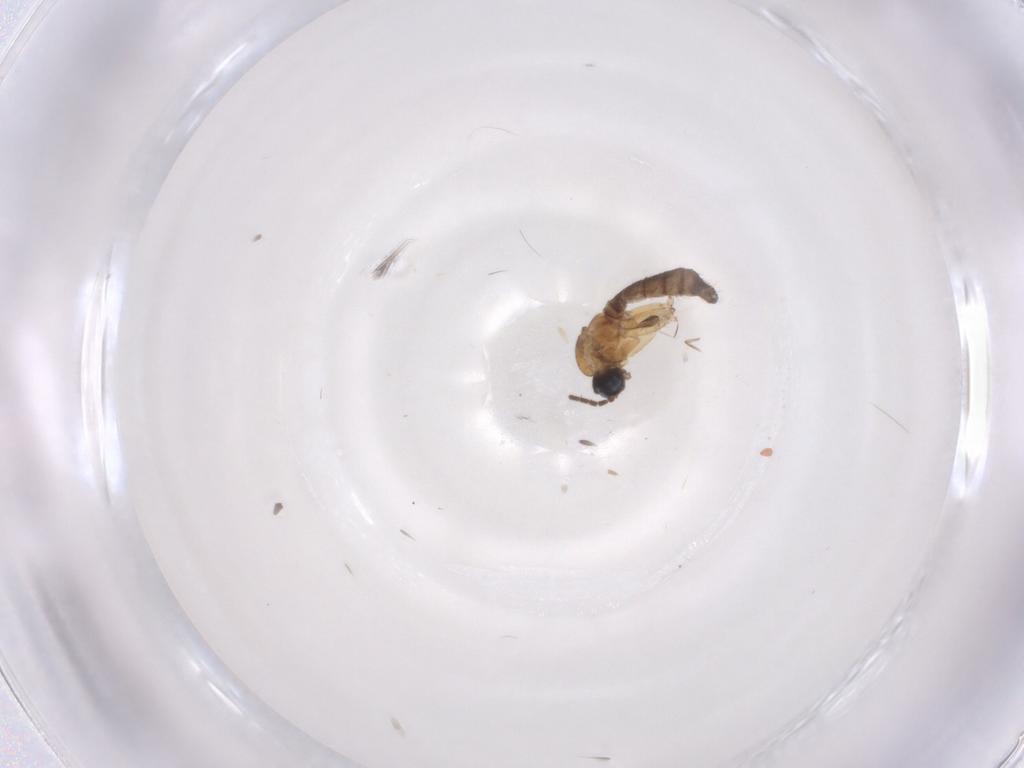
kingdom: Animalia
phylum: Arthropoda
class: Insecta
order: Diptera
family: Sciaridae
